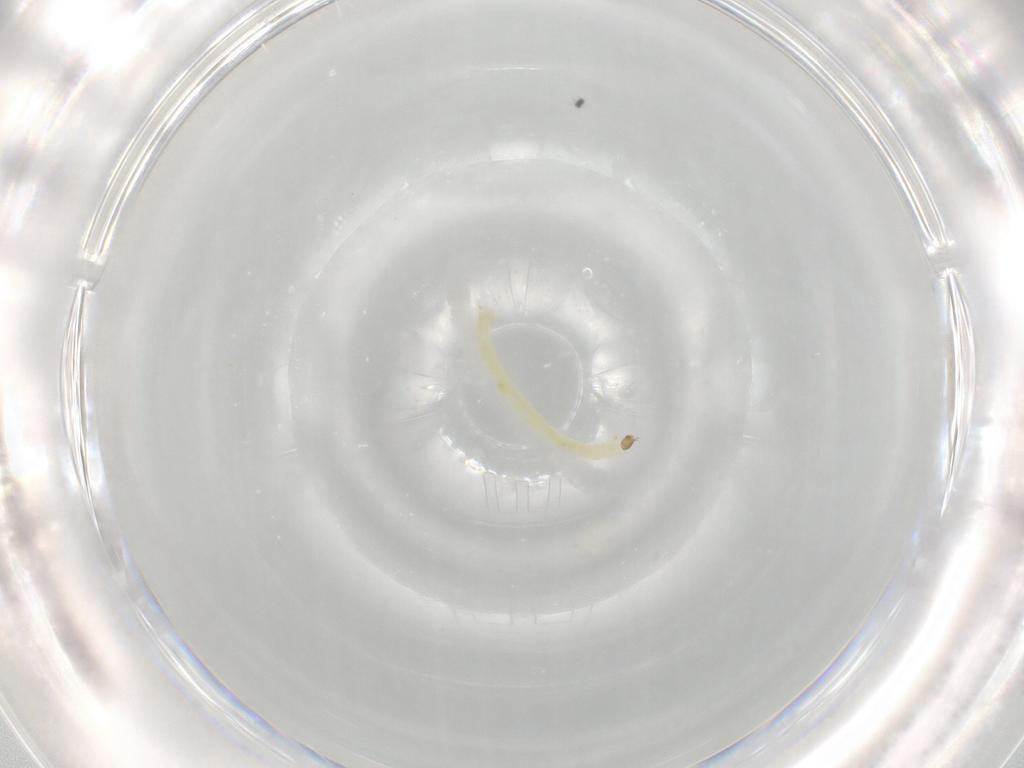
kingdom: Animalia
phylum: Arthropoda
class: Insecta
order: Diptera
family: Chironomidae
